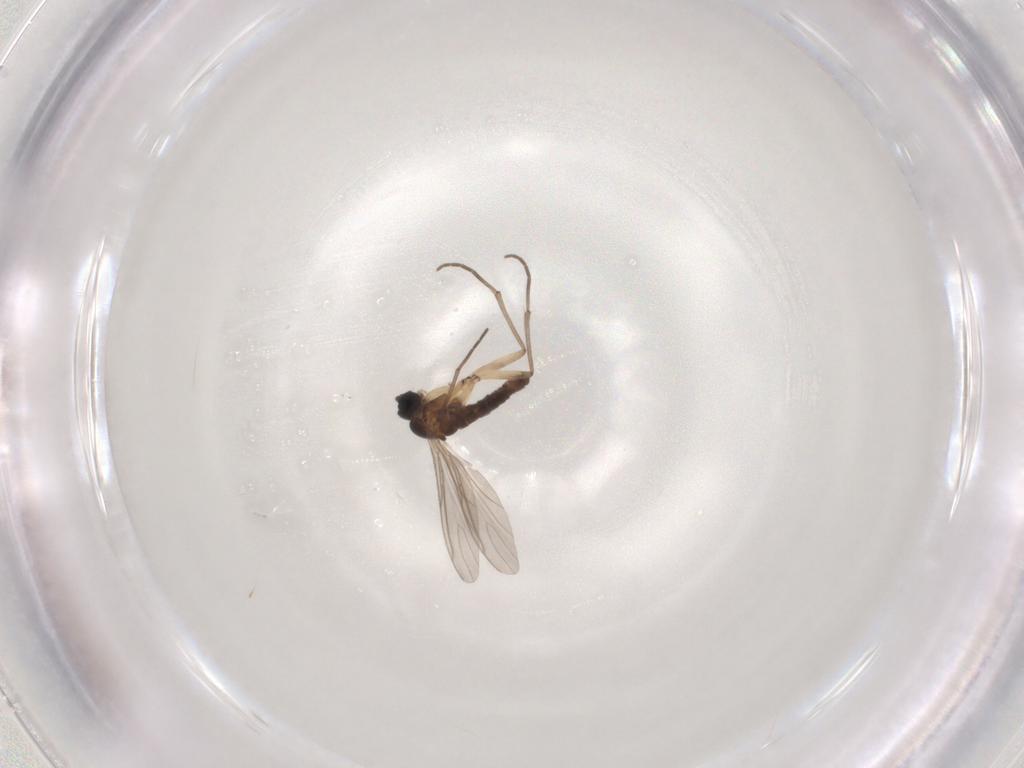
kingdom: Animalia
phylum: Arthropoda
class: Insecta
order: Diptera
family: Sciaridae
